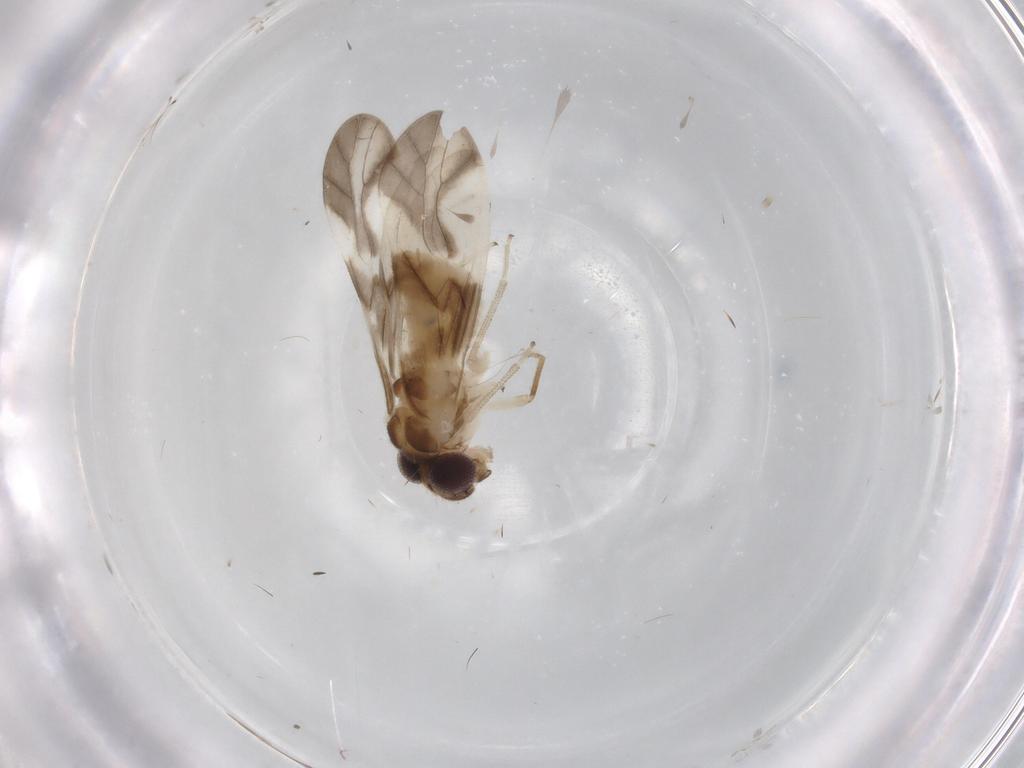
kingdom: Animalia
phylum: Arthropoda
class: Insecta
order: Psocodea
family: Caeciliusidae
